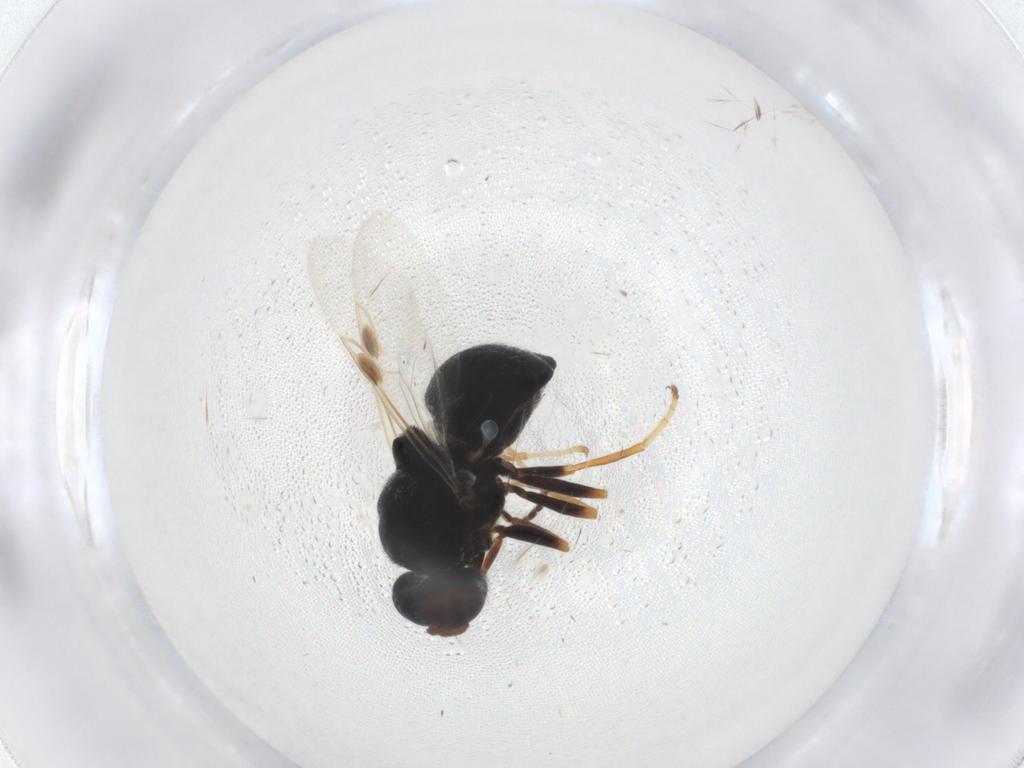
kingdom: Animalia
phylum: Arthropoda
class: Insecta
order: Diptera
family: Stratiomyidae
